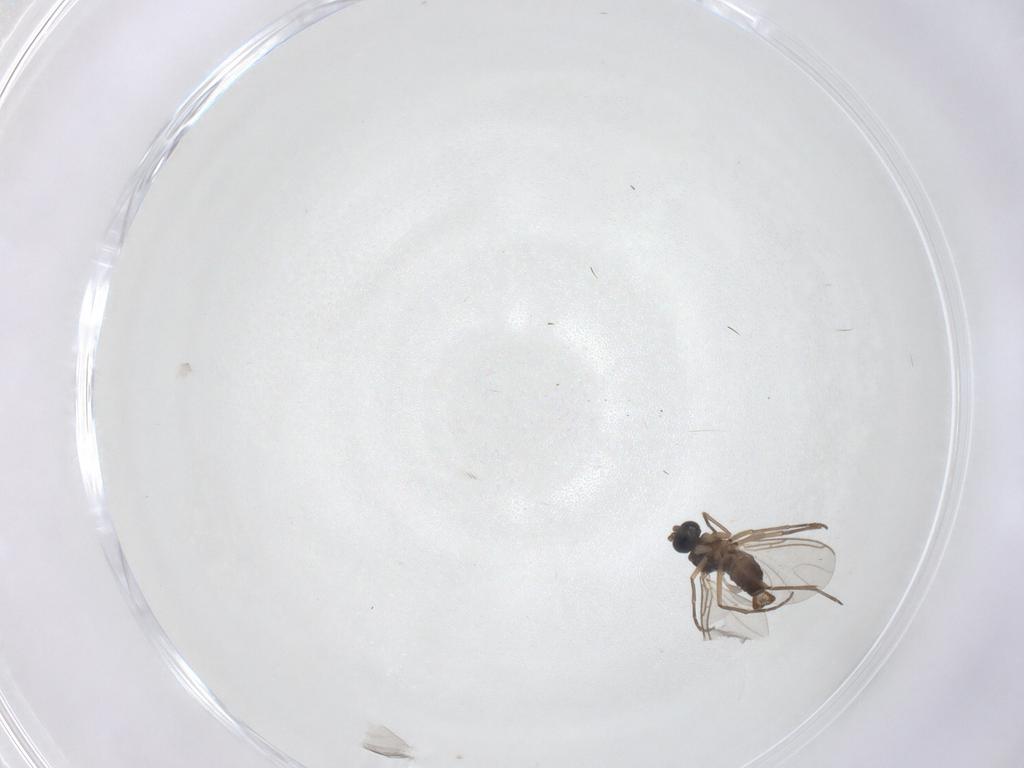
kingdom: Animalia
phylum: Arthropoda
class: Insecta
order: Diptera
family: Sciaridae
